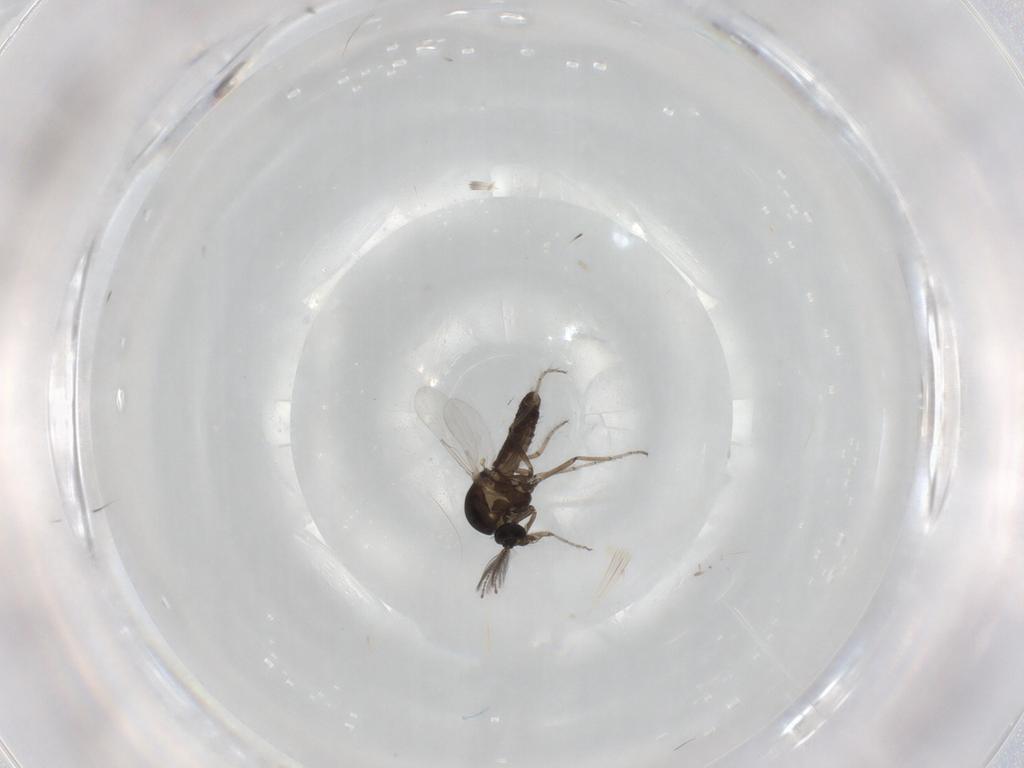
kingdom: Animalia
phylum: Arthropoda
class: Insecta
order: Diptera
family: Ceratopogonidae
